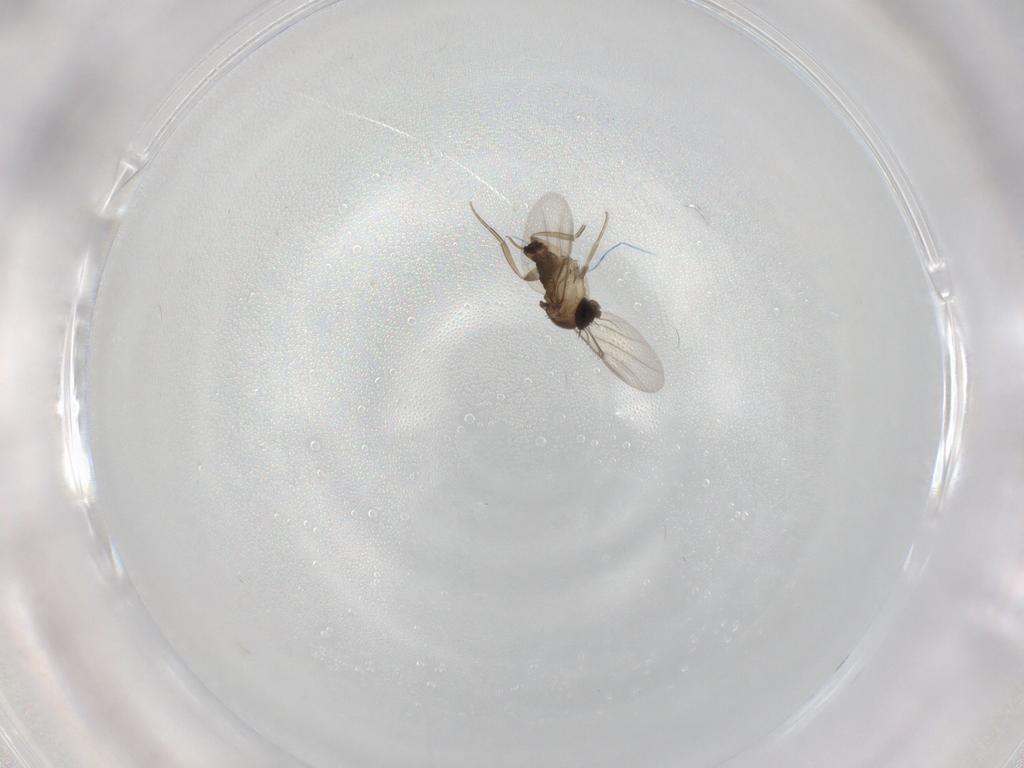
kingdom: Animalia
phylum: Arthropoda
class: Insecta
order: Diptera
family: Phoridae
